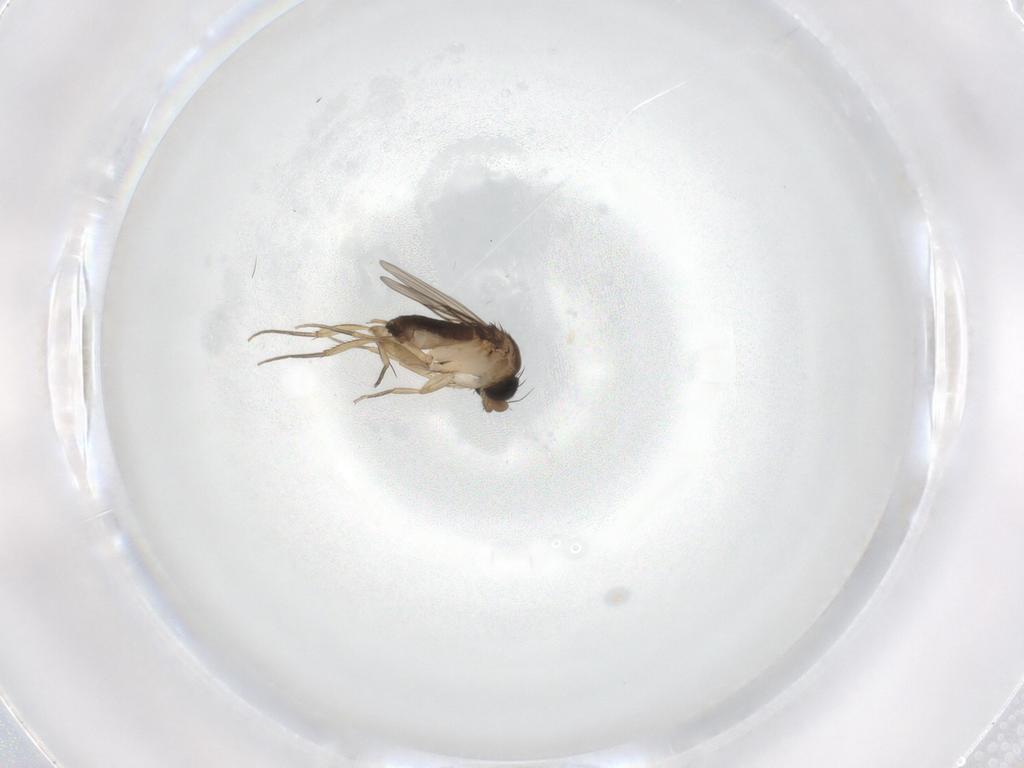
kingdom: Animalia
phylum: Arthropoda
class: Insecta
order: Diptera
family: Phoridae
